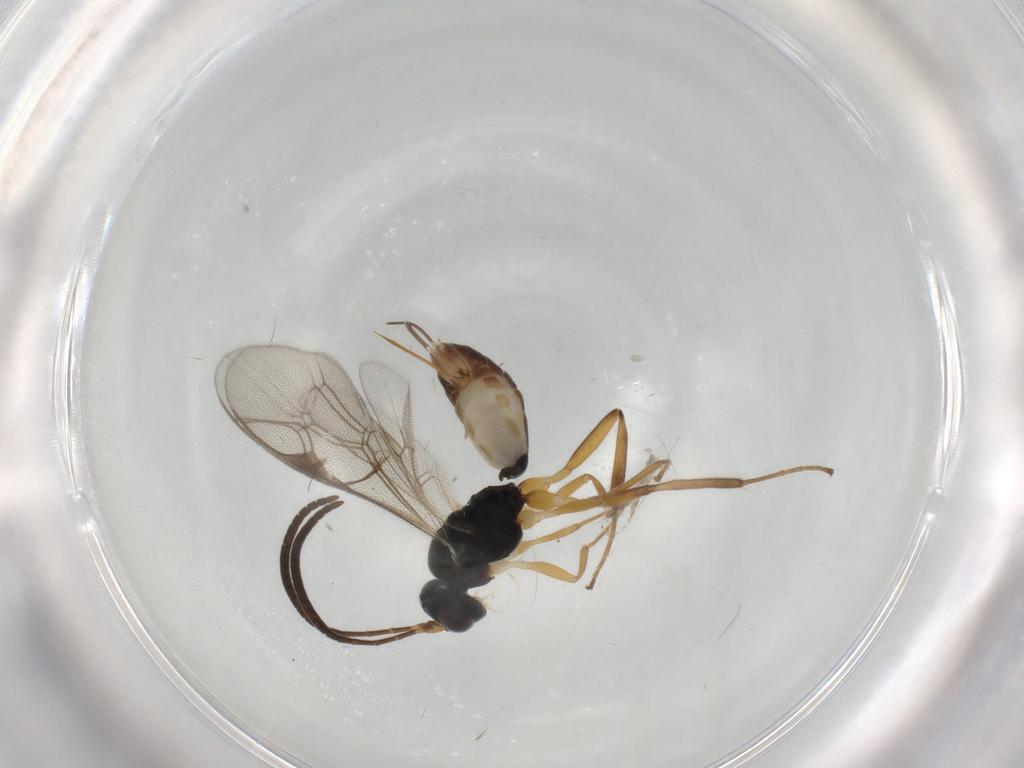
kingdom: Animalia
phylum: Arthropoda
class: Insecta
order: Hymenoptera
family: Ichneumonidae
